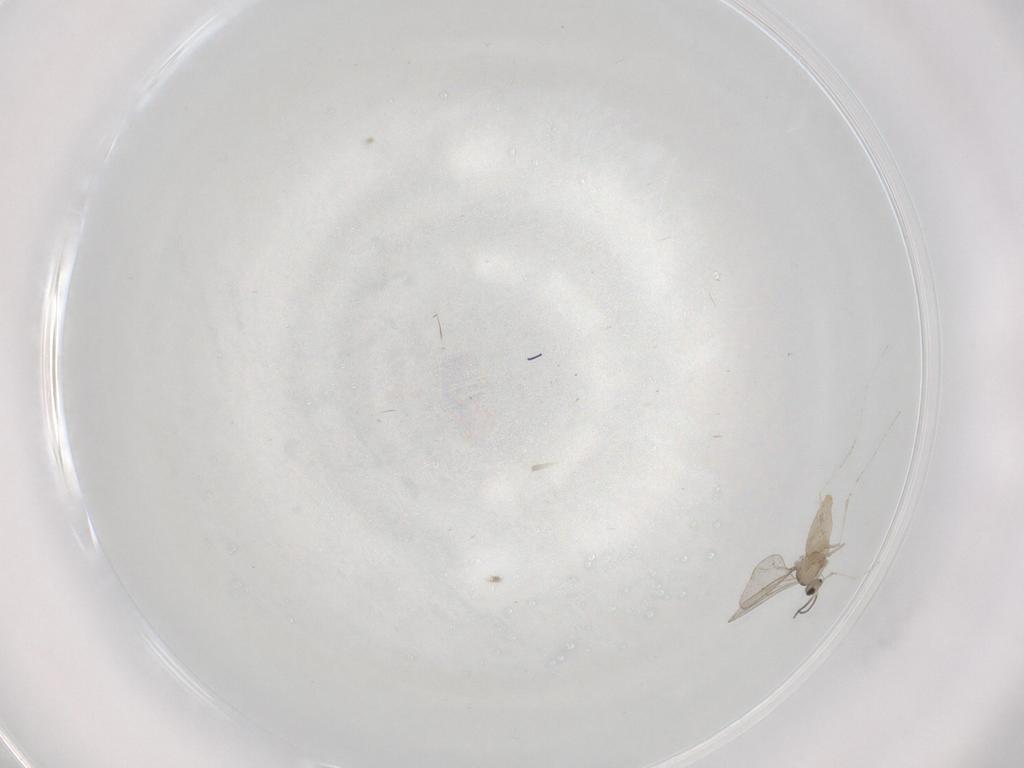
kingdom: Animalia
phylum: Arthropoda
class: Insecta
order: Diptera
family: Cecidomyiidae
